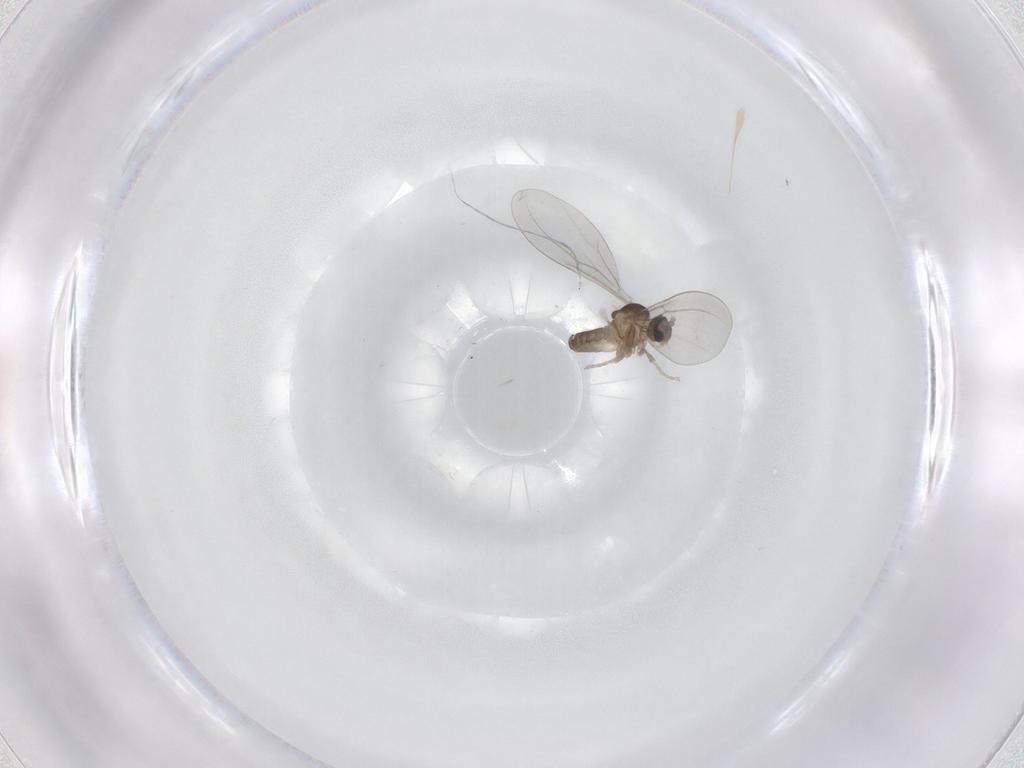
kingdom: Animalia
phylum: Arthropoda
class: Insecta
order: Diptera
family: Cecidomyiidae
